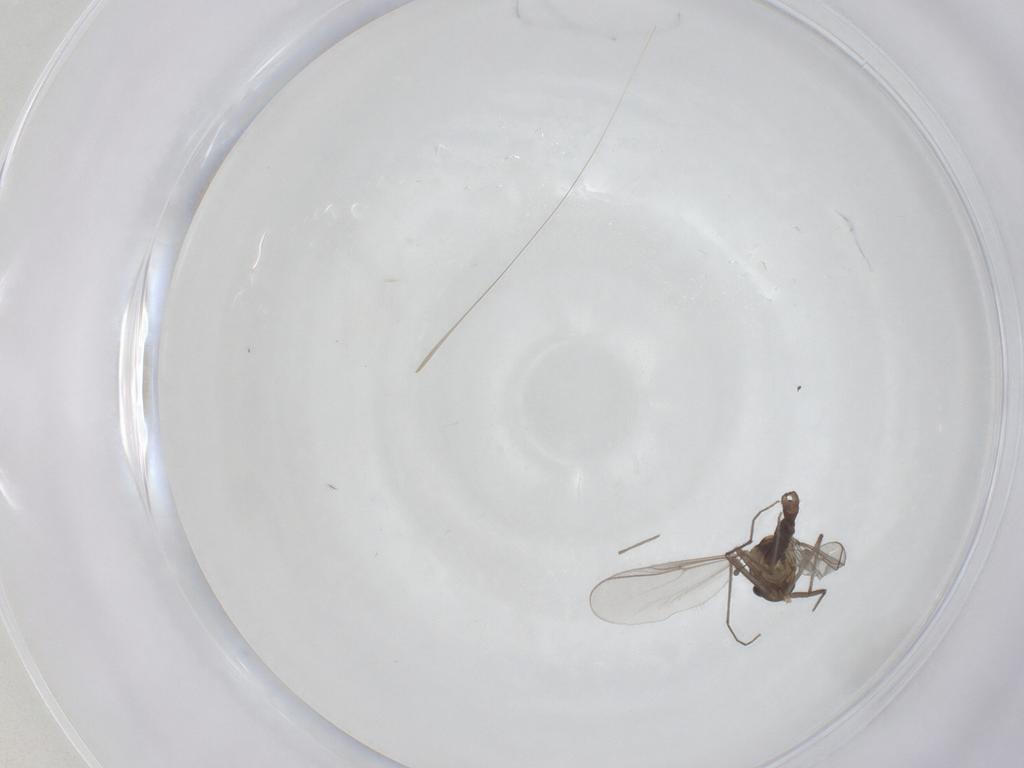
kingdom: Animalia
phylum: Arthropoda
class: Insecta
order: Diptera
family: Chironomidae
